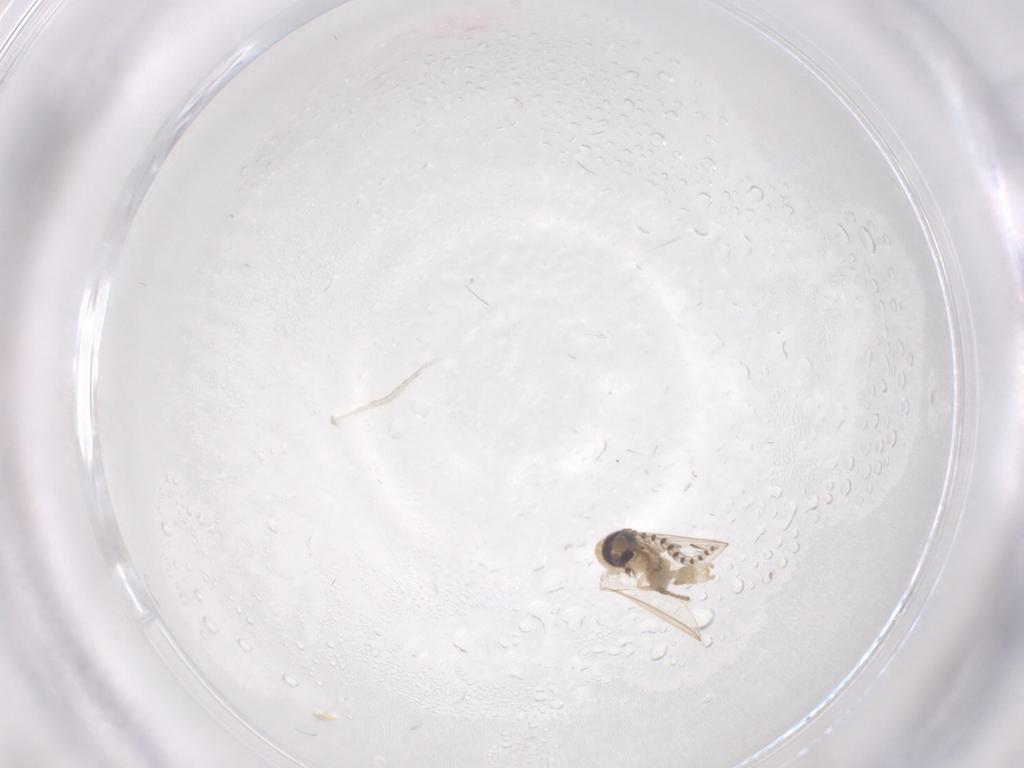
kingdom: Animalia
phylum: Arthropoda
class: Insecta
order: Diptera
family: Psychodidae
